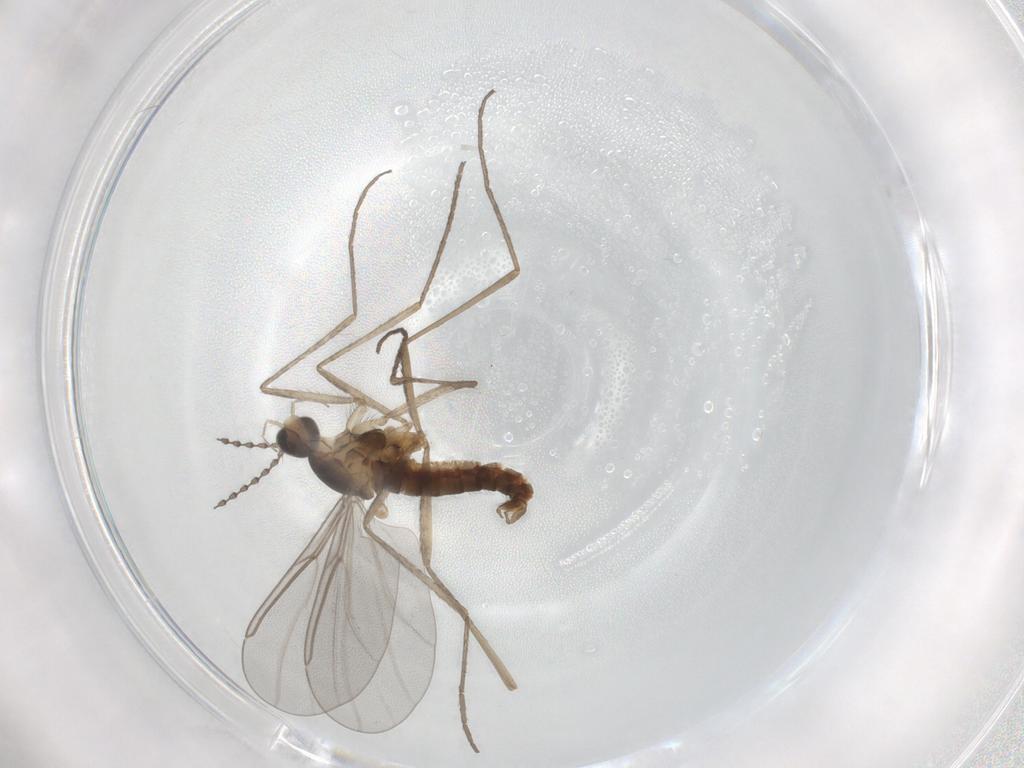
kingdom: Animalia
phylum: Arthropoda
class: Insecta
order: Diptera
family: Cecidomyiidae
